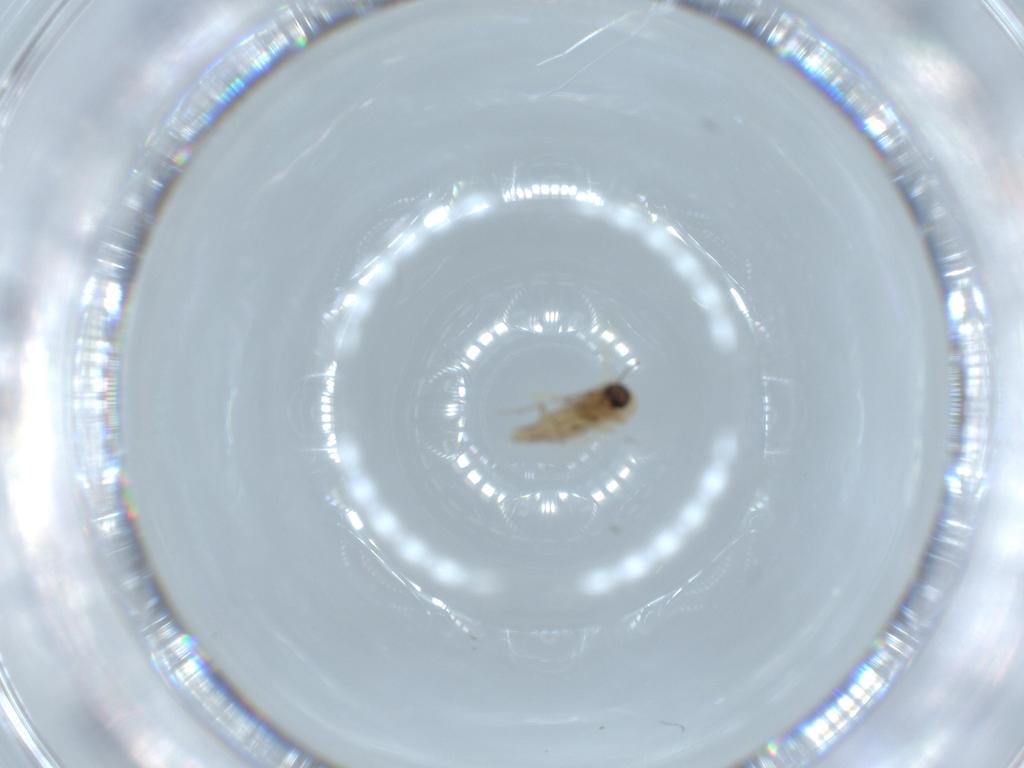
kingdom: Animalia
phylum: Arthropoda
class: Insecta
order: Diptera
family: Ceratopogonidae
